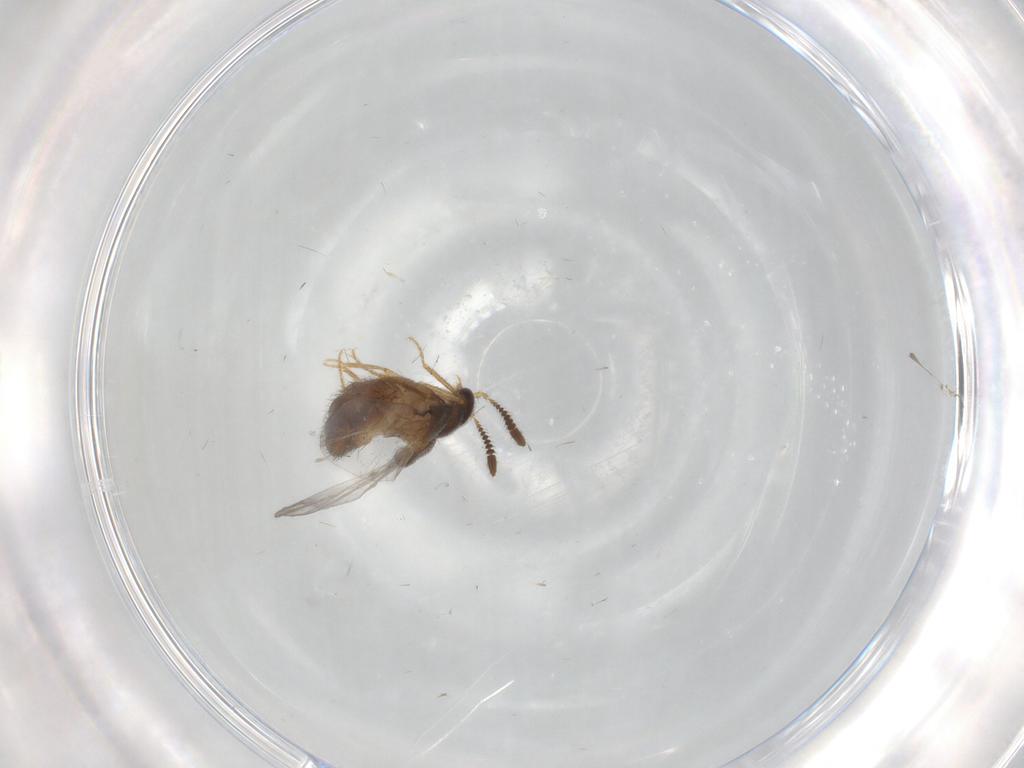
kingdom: Animalia
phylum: Arthropoda
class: Insecta
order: Coleoptera
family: Staphylinidae
